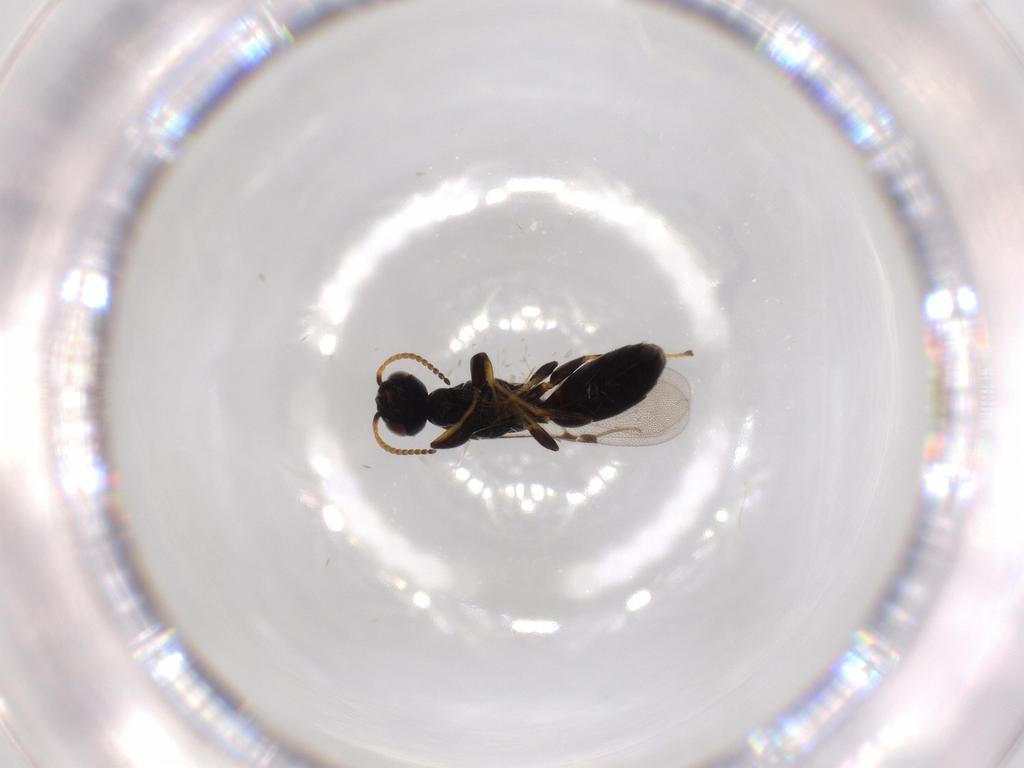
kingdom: Animalia
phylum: Arthropoda
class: Insecta
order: Hymenoptera
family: Bethylidae
